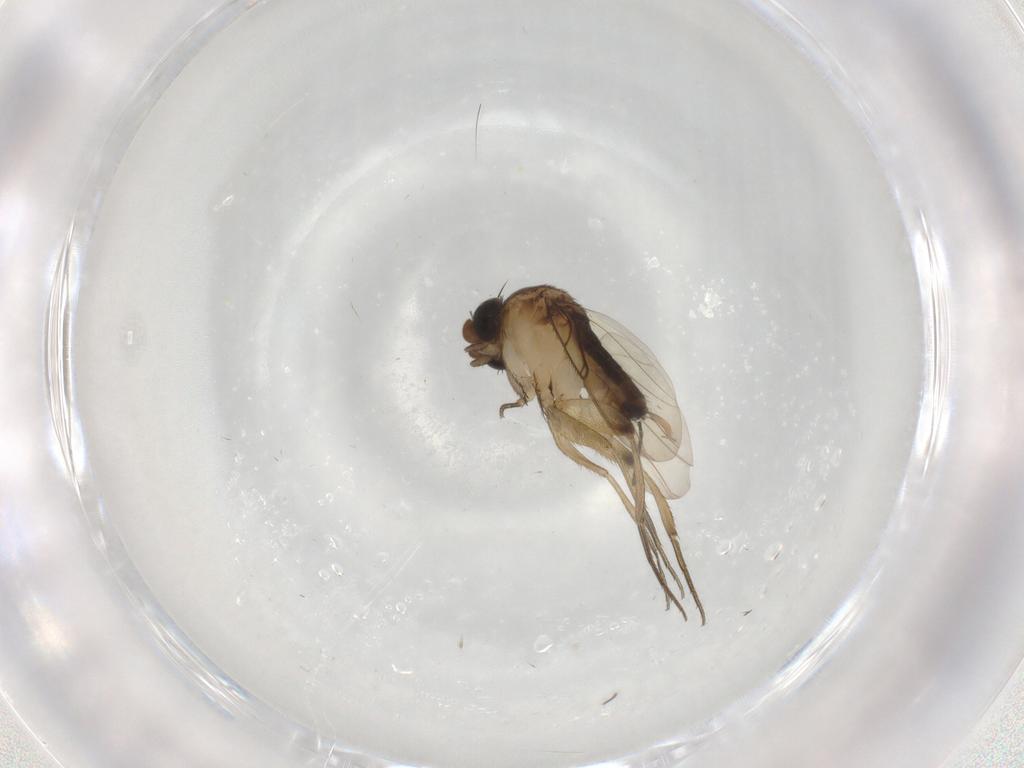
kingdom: Animalia
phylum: Arthropoda
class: Insecta
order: Diptera
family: Phoridae
